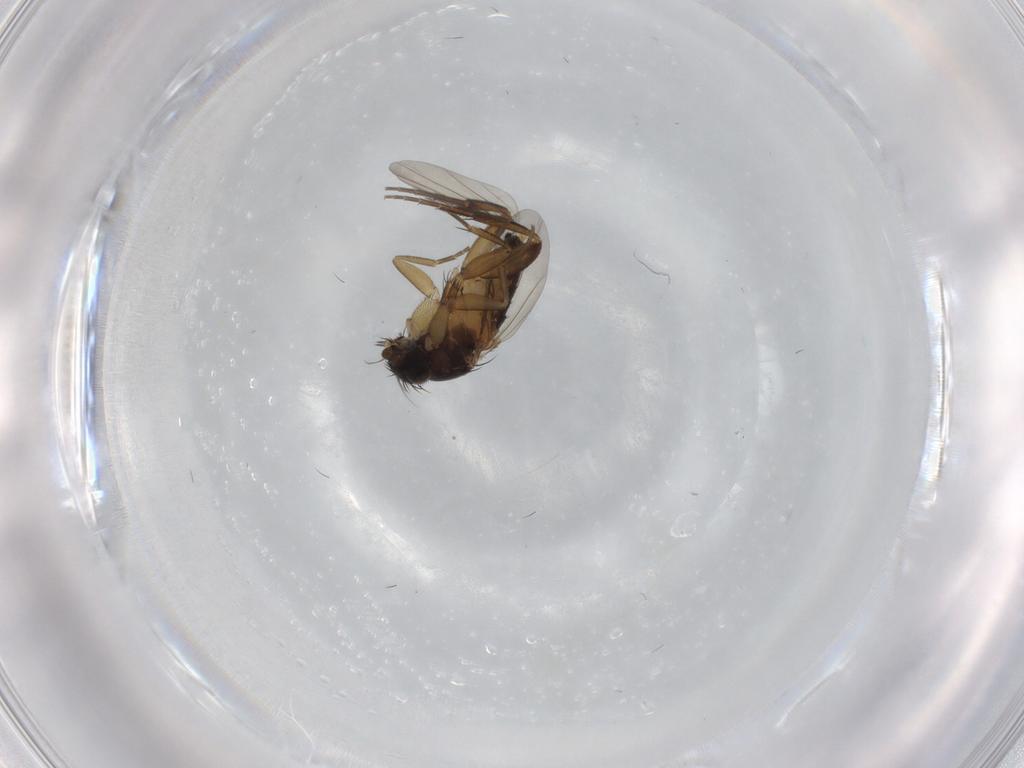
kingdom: Animalia
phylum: Arthropoda
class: Insecta
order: Diptera
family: Phoridae
